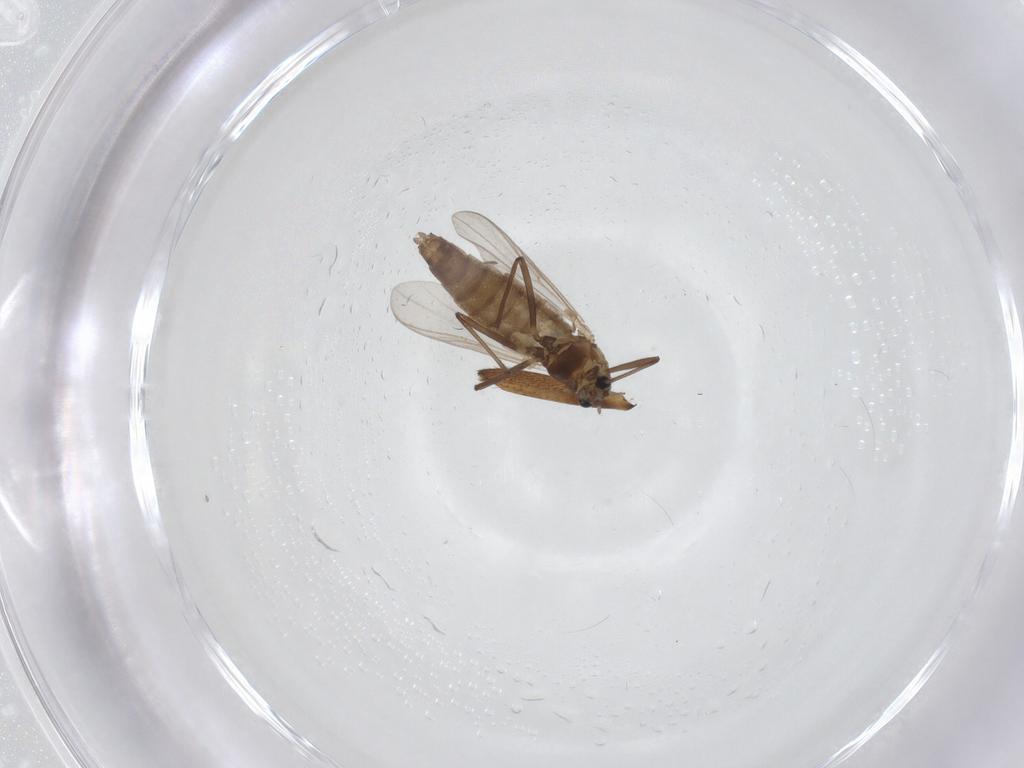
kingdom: Animalia
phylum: Arthropoda
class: Insecta
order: Diptera
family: Chironomidae
